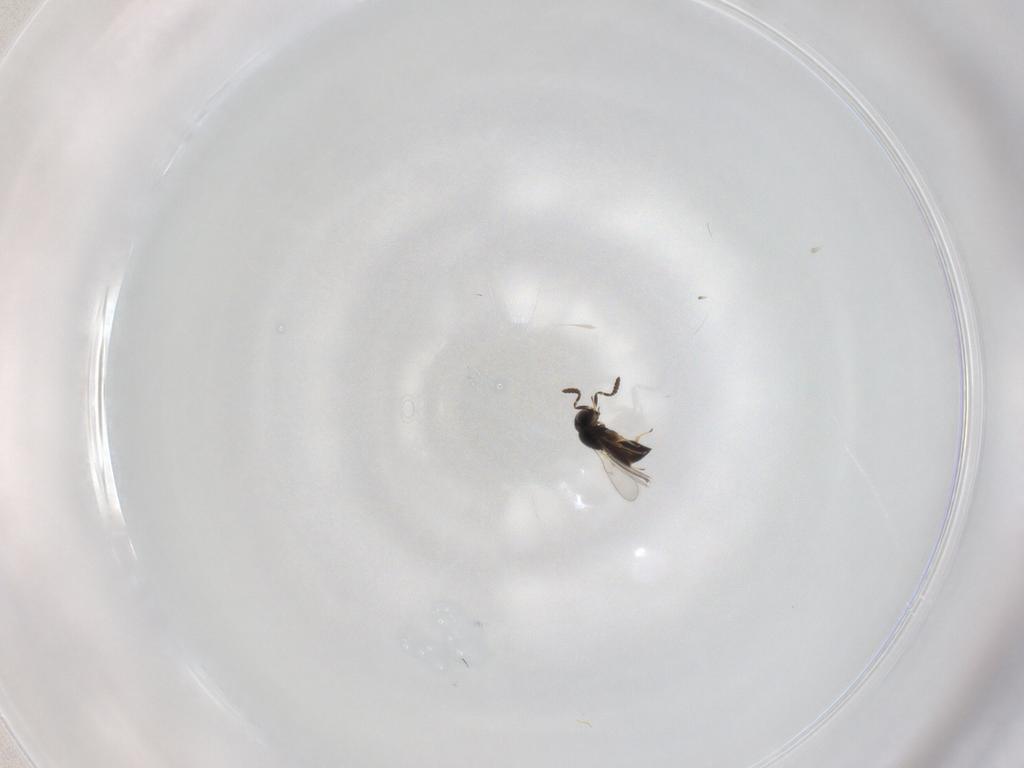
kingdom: Animalia
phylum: Arthropoda
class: Insecta
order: Hymenoptera
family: Scelionidae
